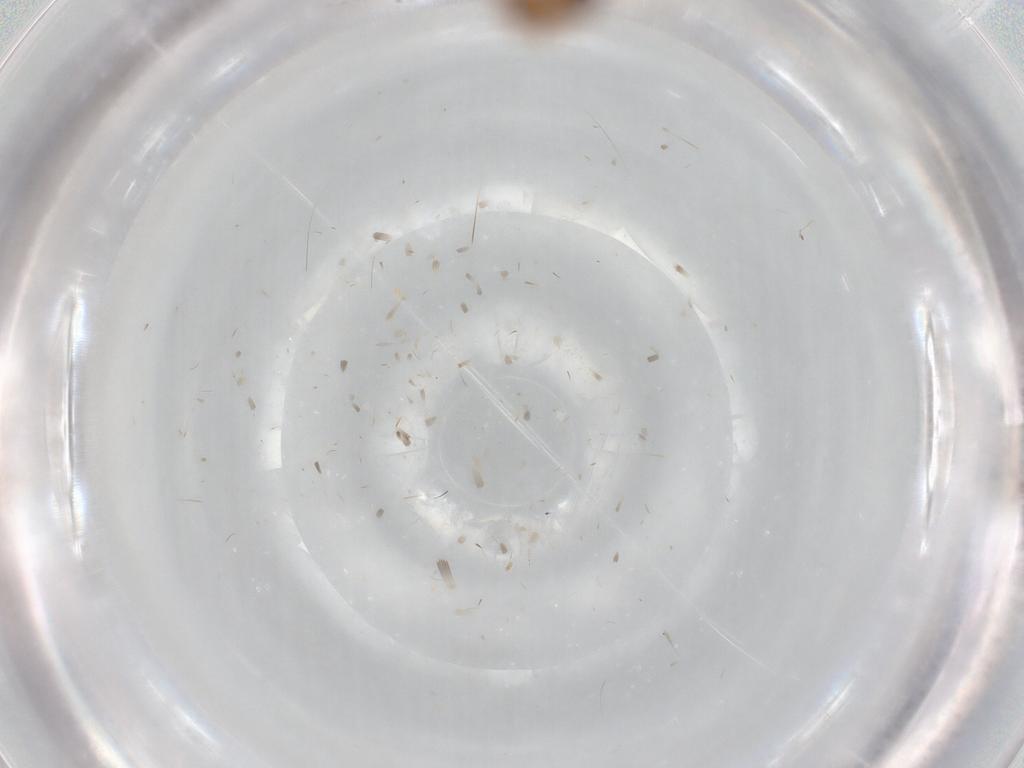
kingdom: Animalia
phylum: Arthropoda
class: Insecta
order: Diptera
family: Chironomidae
